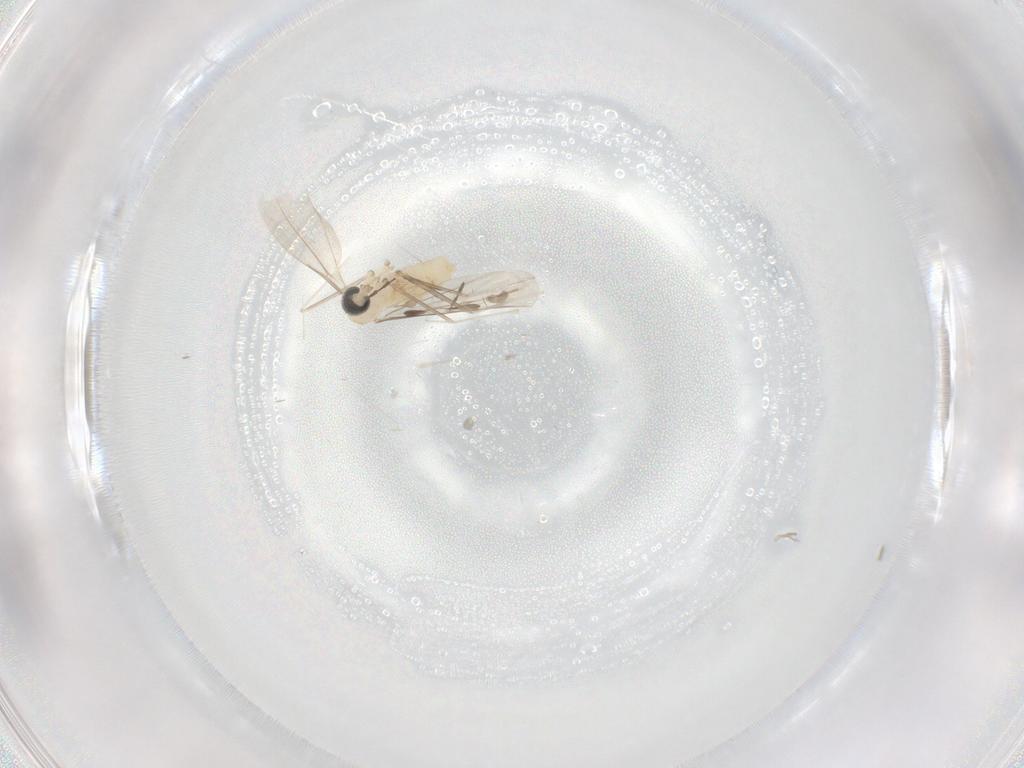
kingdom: Animalia
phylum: Arthropoda
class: Insecta
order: Diptera
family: Cecidomyiidae
